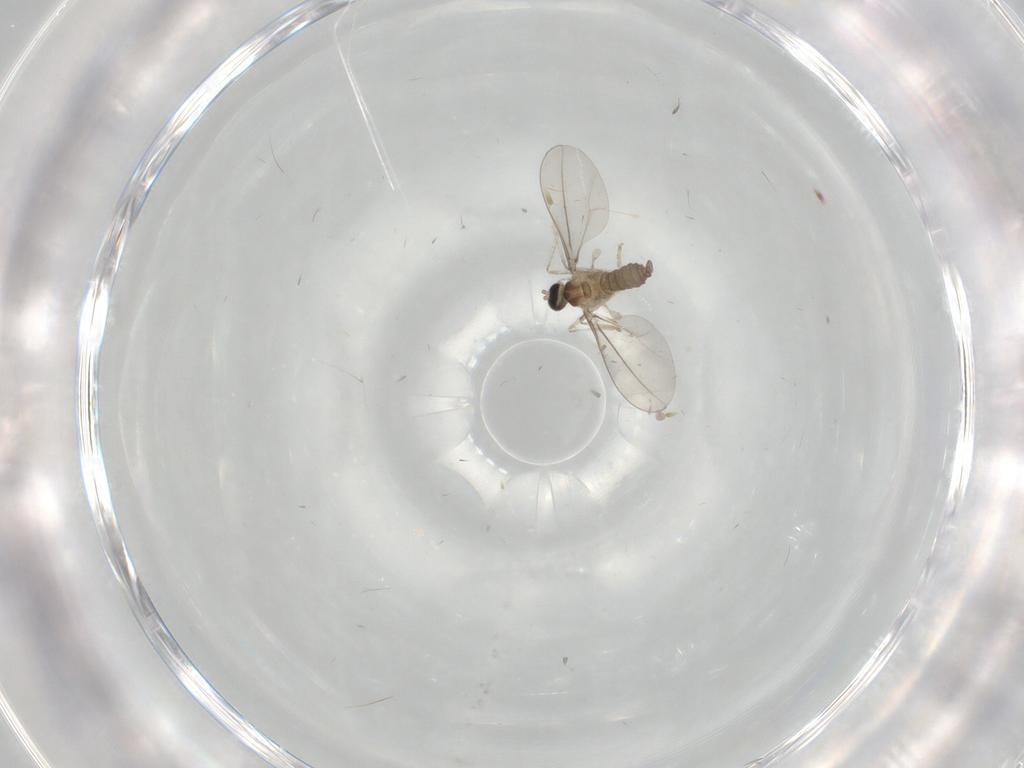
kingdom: Animalia
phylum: Arthropoda
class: Insecta
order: Diptera
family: Cecidomyiidae
